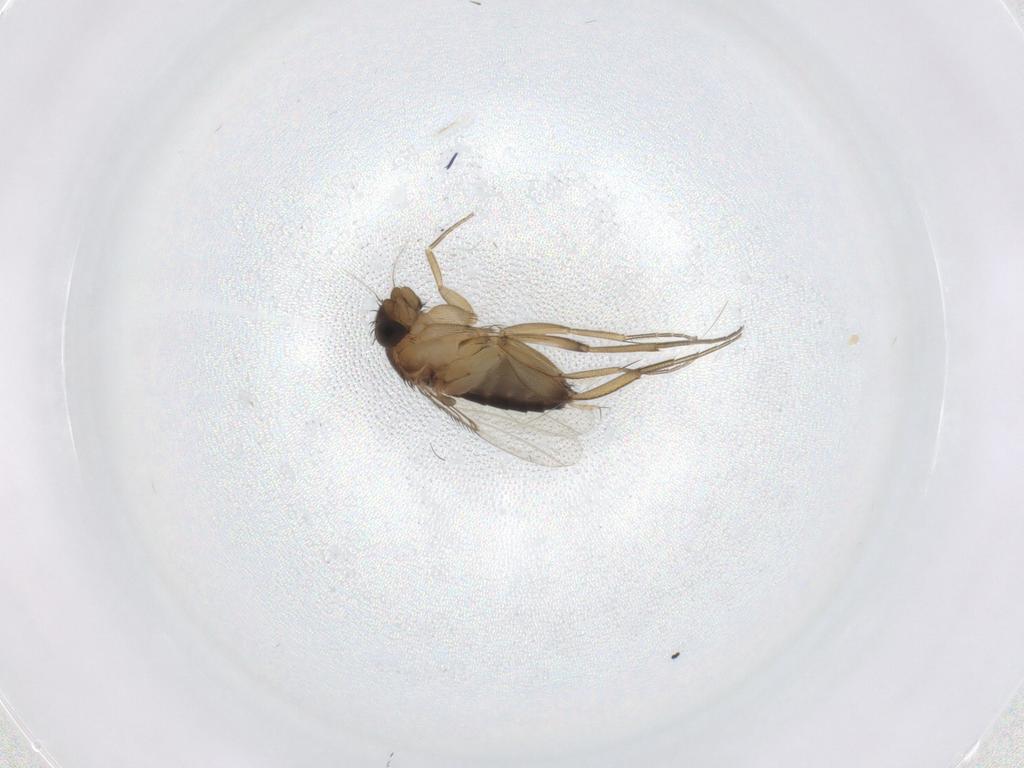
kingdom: Animalia
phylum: Arthropoda
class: Insecta
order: Diptera
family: Phoridae
